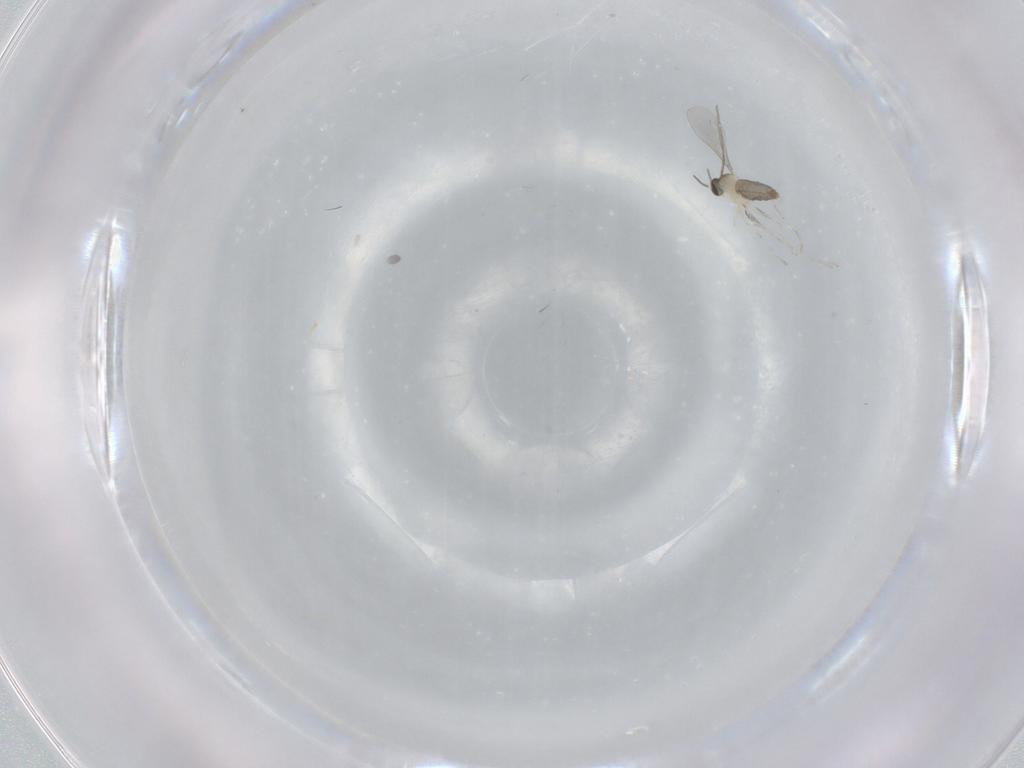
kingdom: Animalia
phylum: Arthropoda
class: Insecta
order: Diptera
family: Cecidomyiidae
